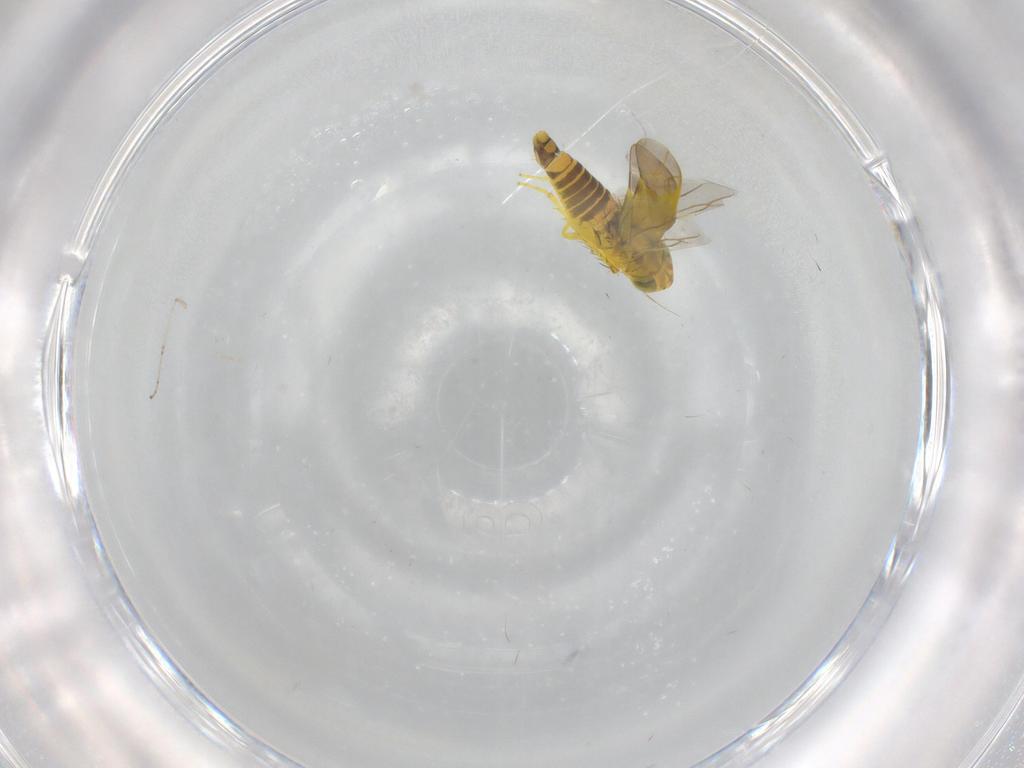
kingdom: Animalia
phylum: Arthropoda
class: Insecta
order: Hemiptera
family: Cicadellidae
